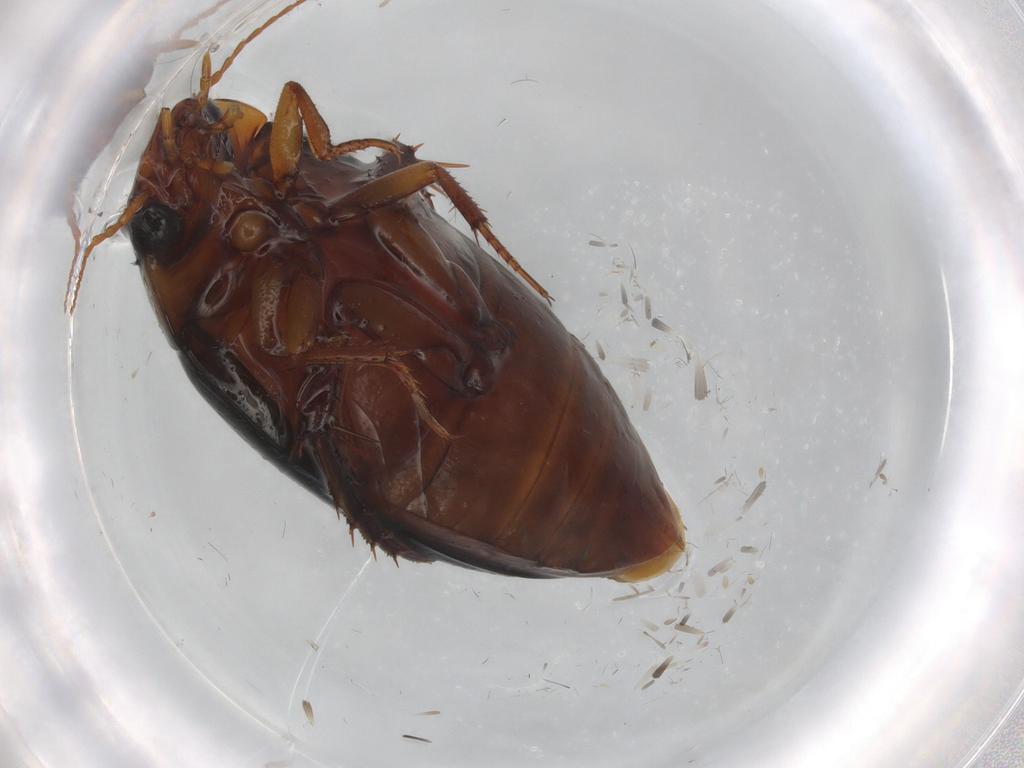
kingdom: Animalia
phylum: Arthropoda
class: Insecta
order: Coleoptera
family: Dytiscidae
